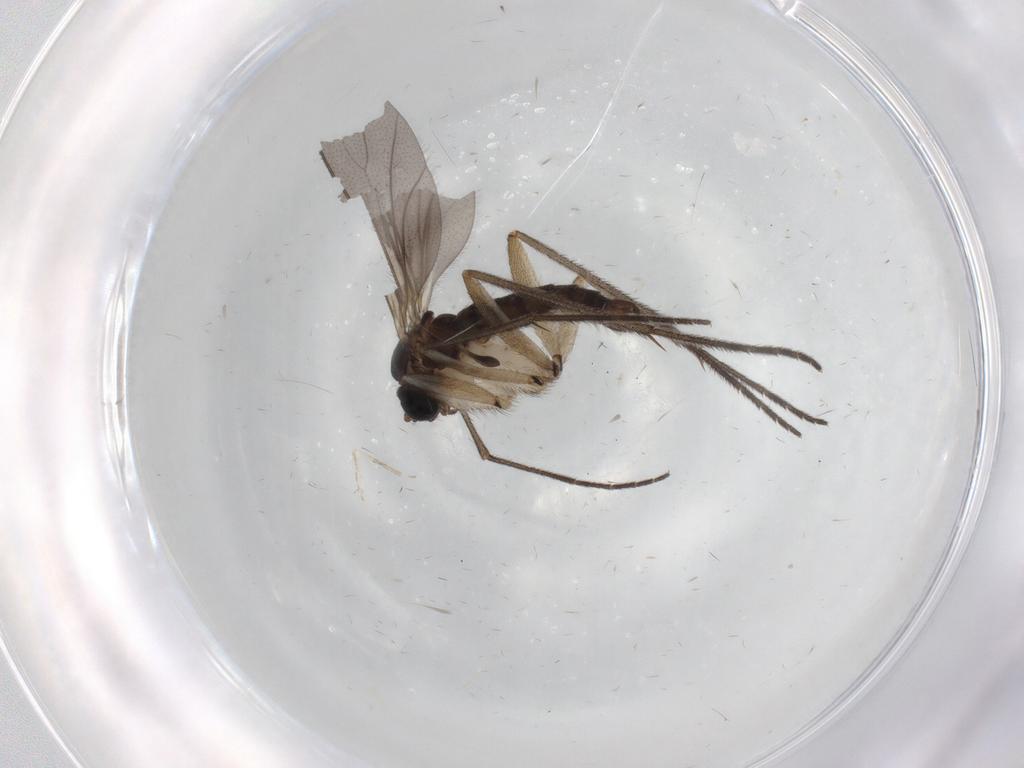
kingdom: Animalia
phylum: Arthropoda
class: Insecta
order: Diptera
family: Sciaridae
